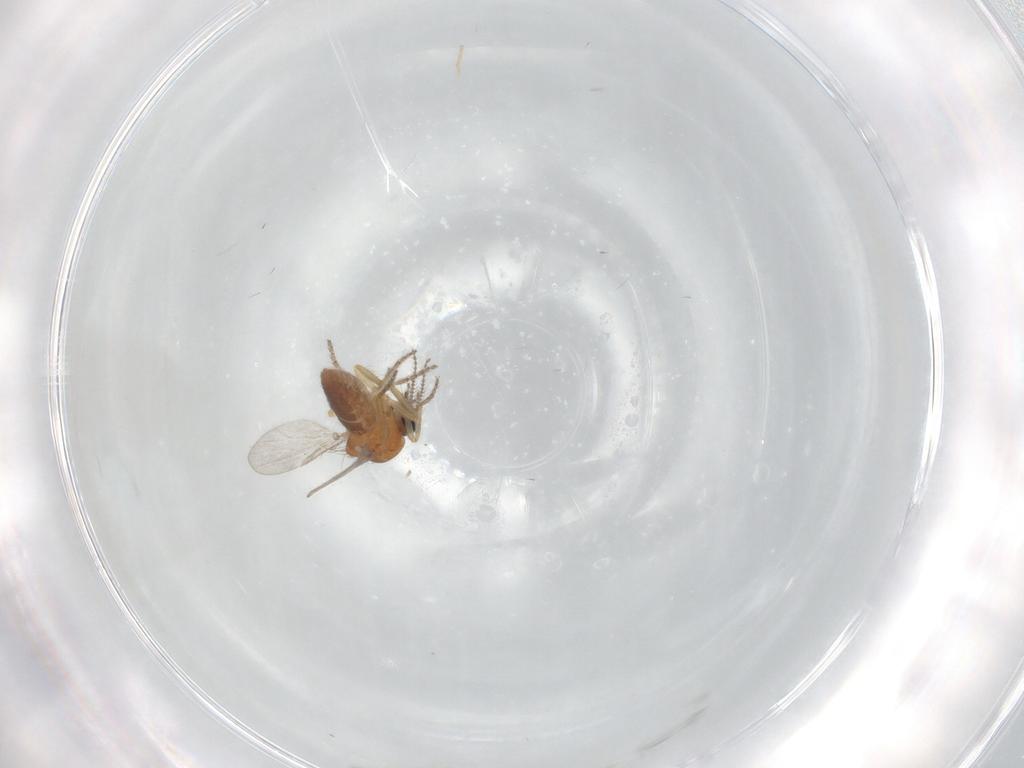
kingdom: Animalia
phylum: Arthropoda
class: Insecta
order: Diptera
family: Ceratopogonidae
